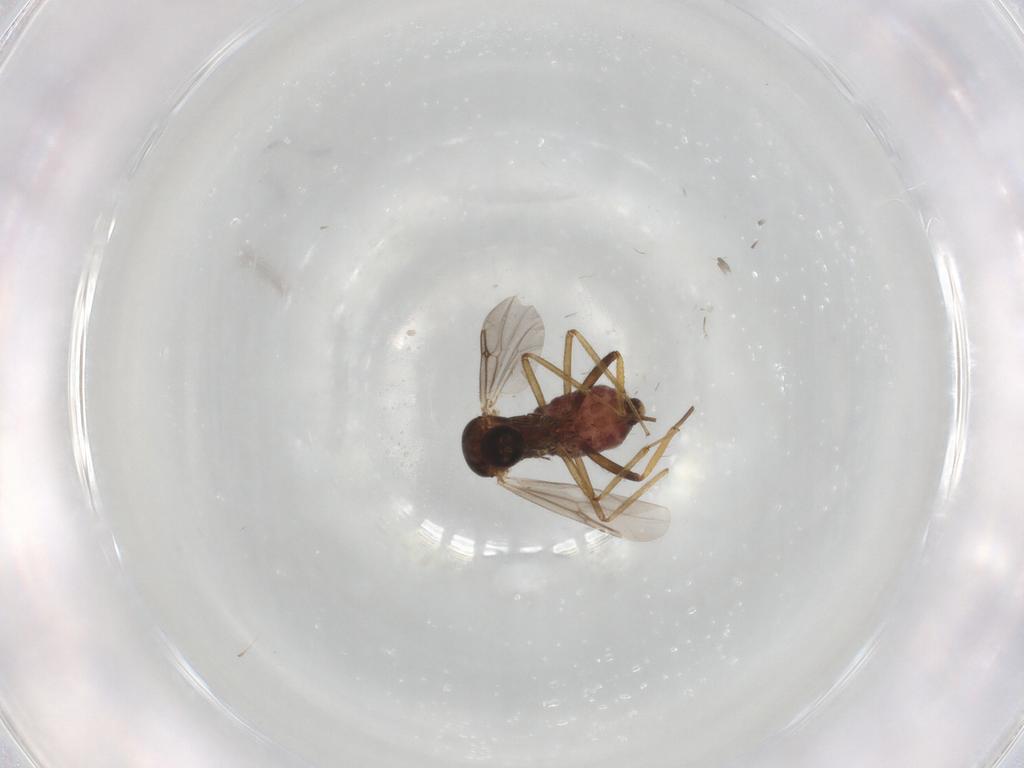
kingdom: Animalia
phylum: Arthropoda
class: Insecta
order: Diptera
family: Ceratopogonidae
